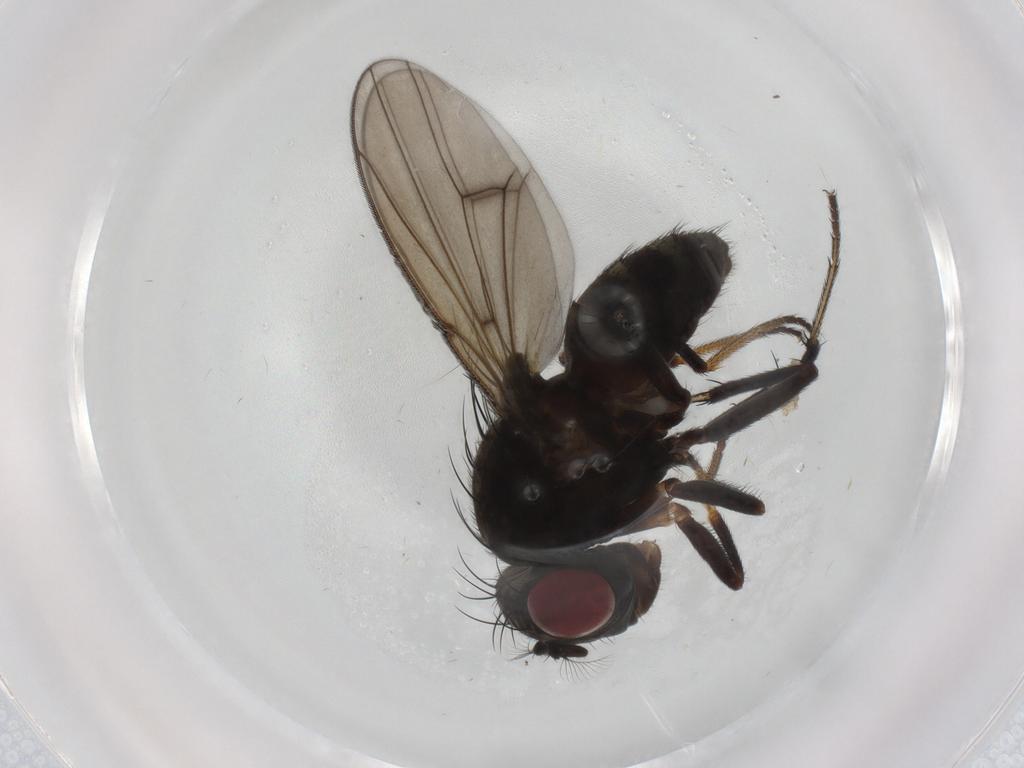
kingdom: Animalia
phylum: Arthropoda
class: Insecta
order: Diptera
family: Ephydridae
